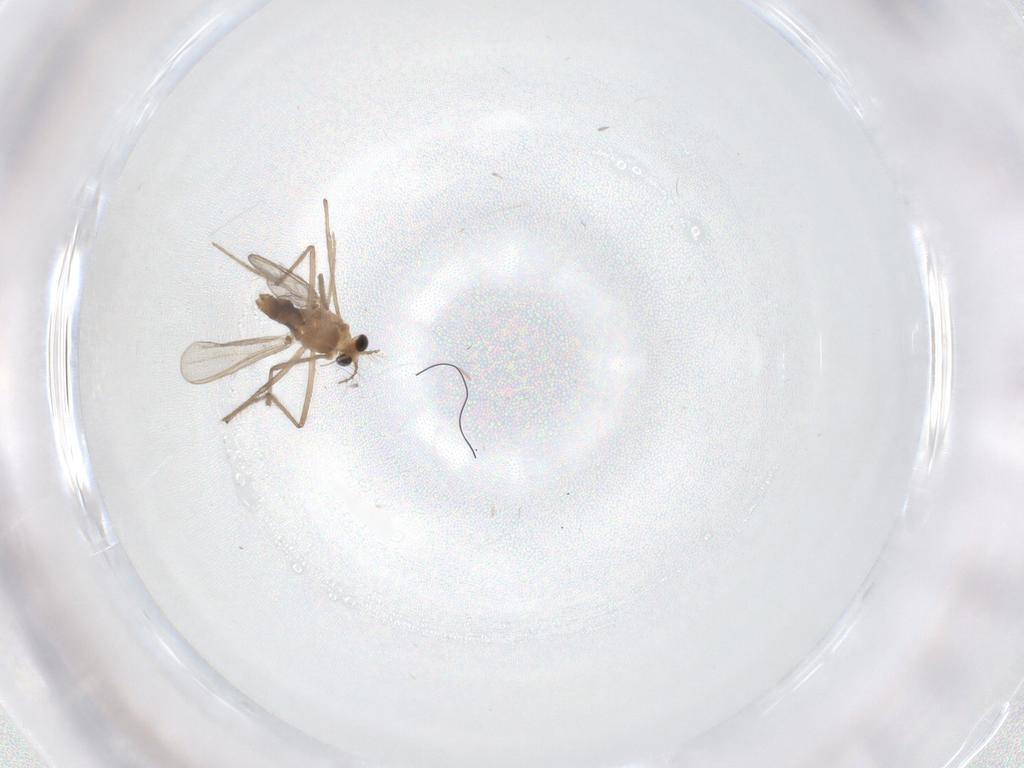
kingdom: Animalia
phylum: Arthropoda
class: Insecta
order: Diptera
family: Chironomidae
